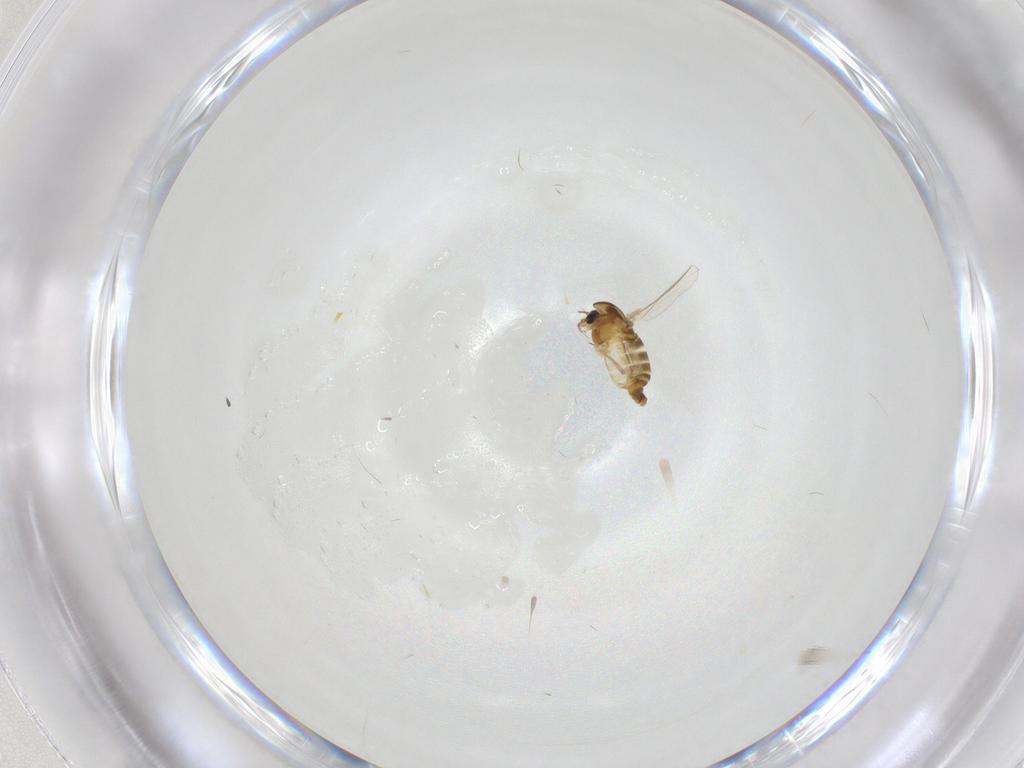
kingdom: Animalia
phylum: Arthropoda
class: Insecta
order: Diptera
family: Chironomidae
